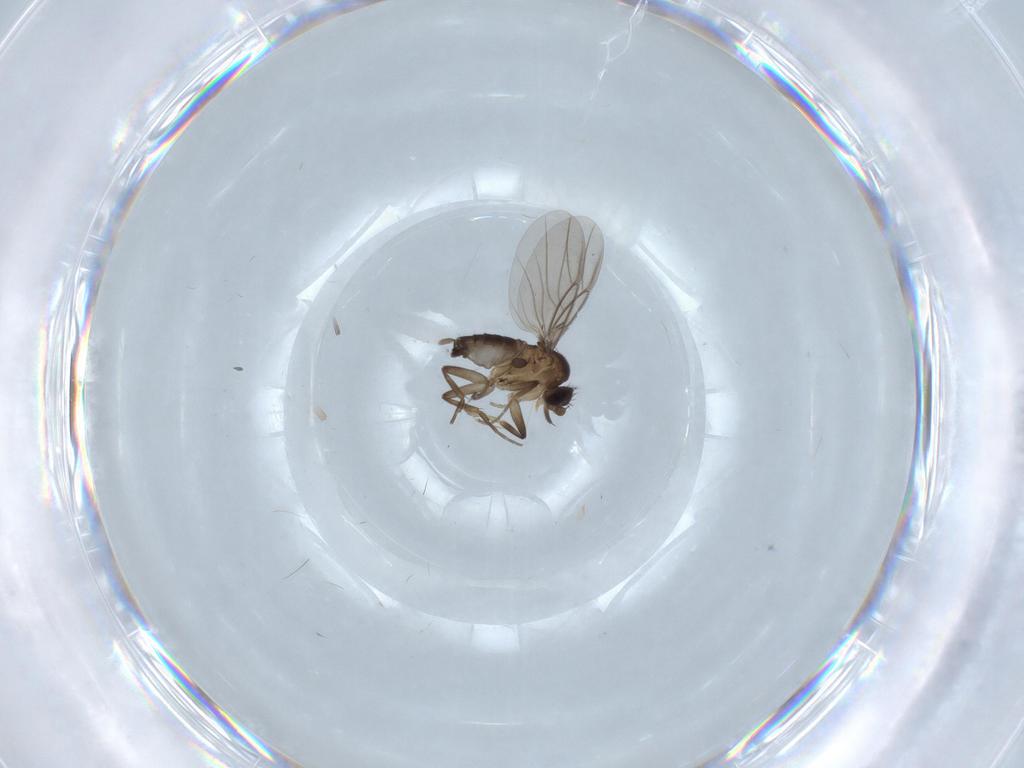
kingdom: Animalia
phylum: Arthropoda
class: Insecta
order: Diptera
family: Phoridae
